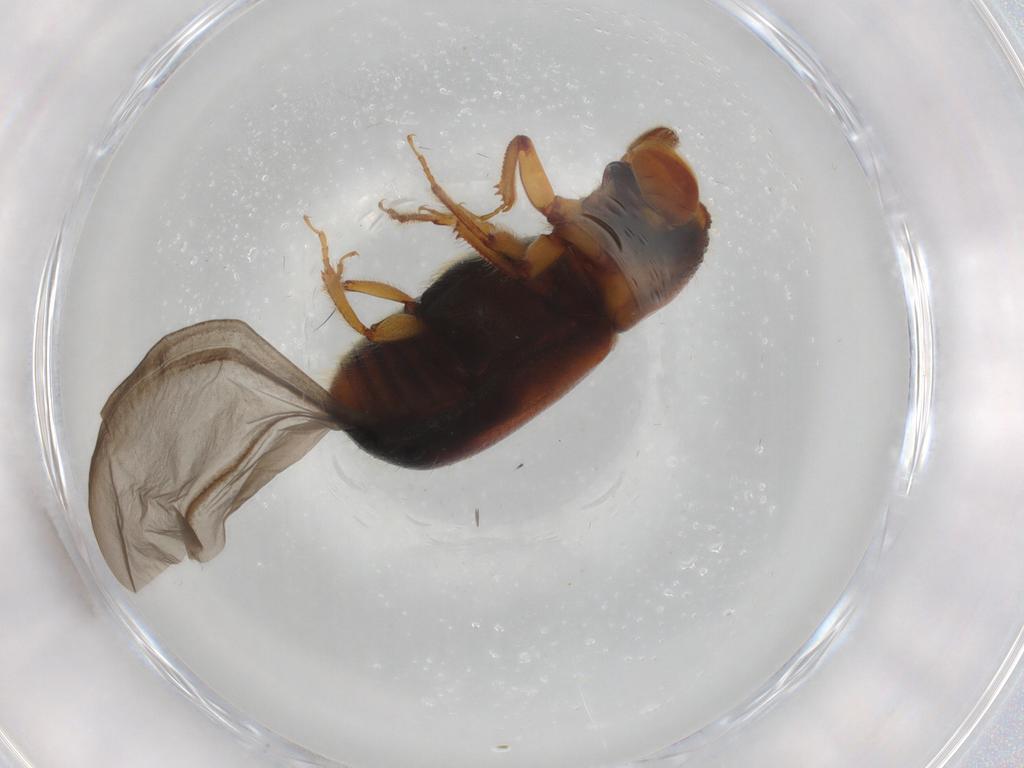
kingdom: Animalia
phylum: Arthropoda
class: Insecta
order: Coleoptera
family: Curculionidae
